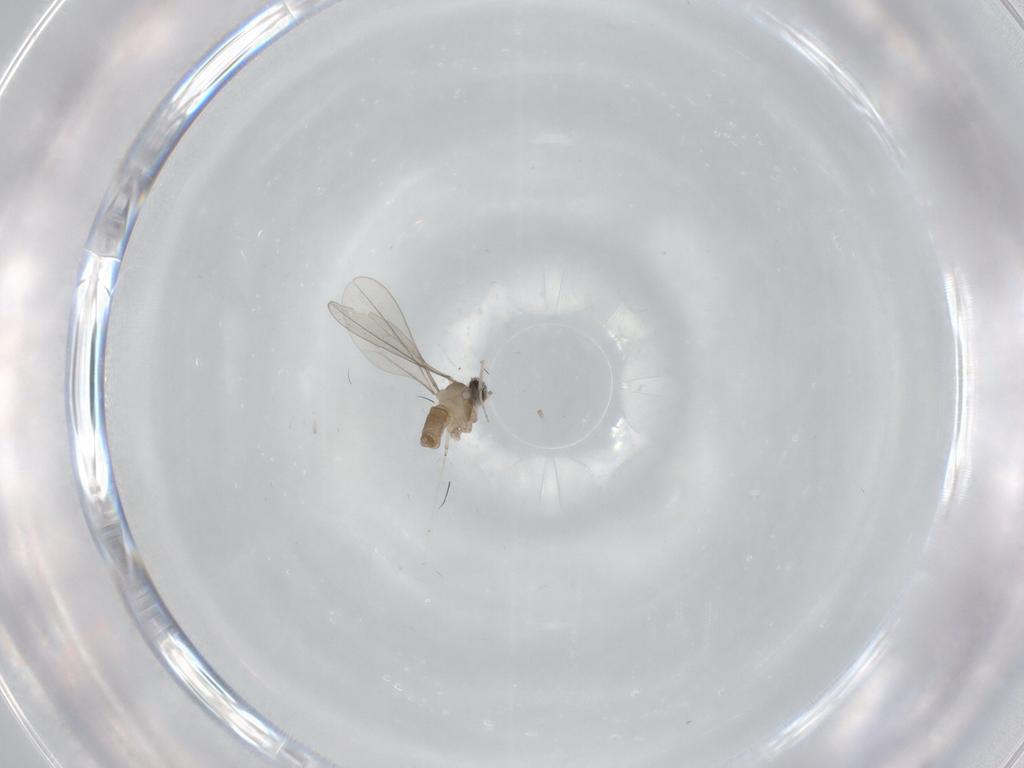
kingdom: Animalia
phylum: Arthropoda
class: Insecta
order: Diptera
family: Cecidomyiidae
